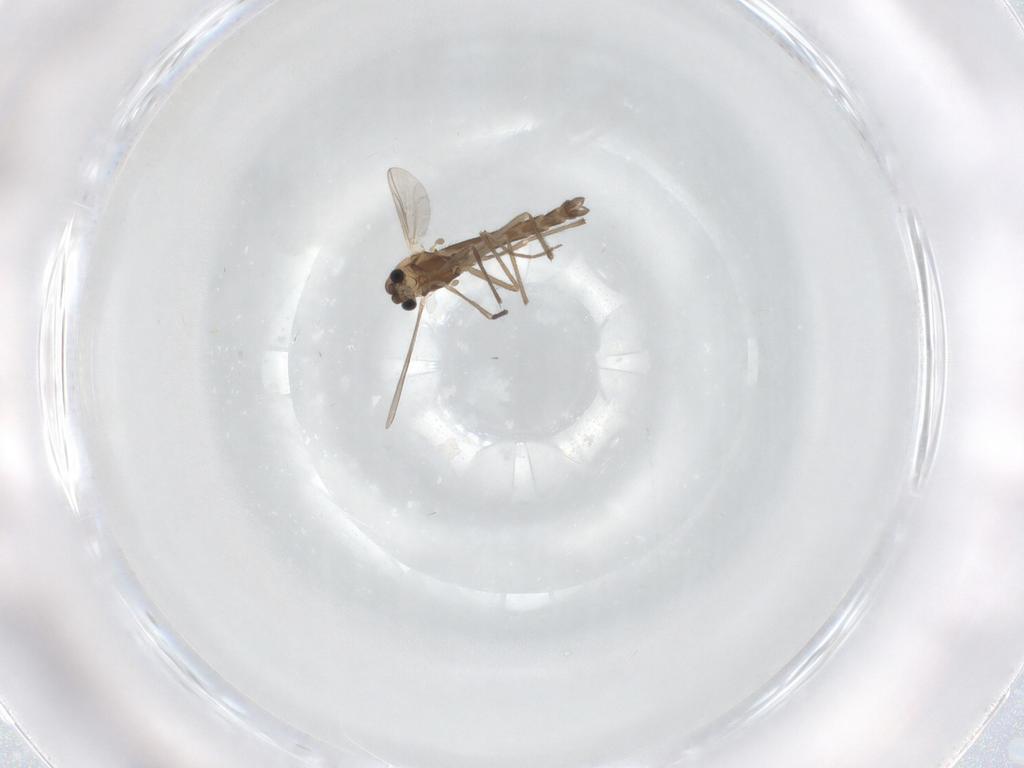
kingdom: Animalia
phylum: Arthropoda
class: Insecta
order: Diptera
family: Chironomidae
